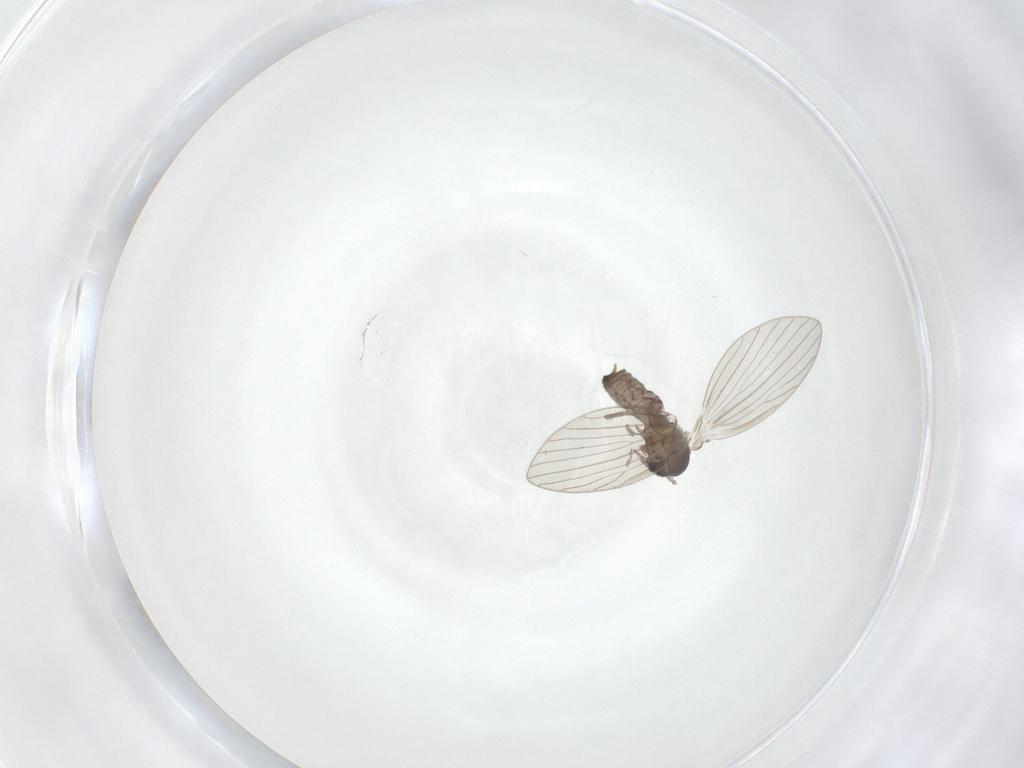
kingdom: Animalia
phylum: Arthropoda
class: Insecta
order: Diptera
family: Psychodidae
